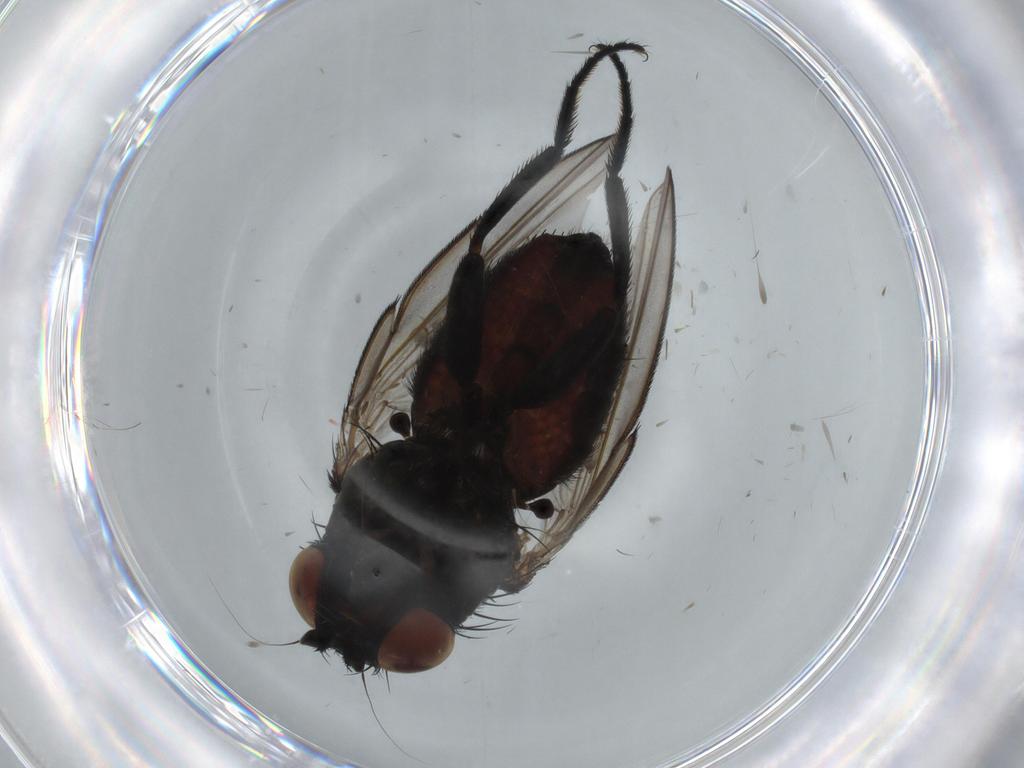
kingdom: Animalia
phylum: Arthropoda
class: Insecta
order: Diptera
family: Milichiidae
